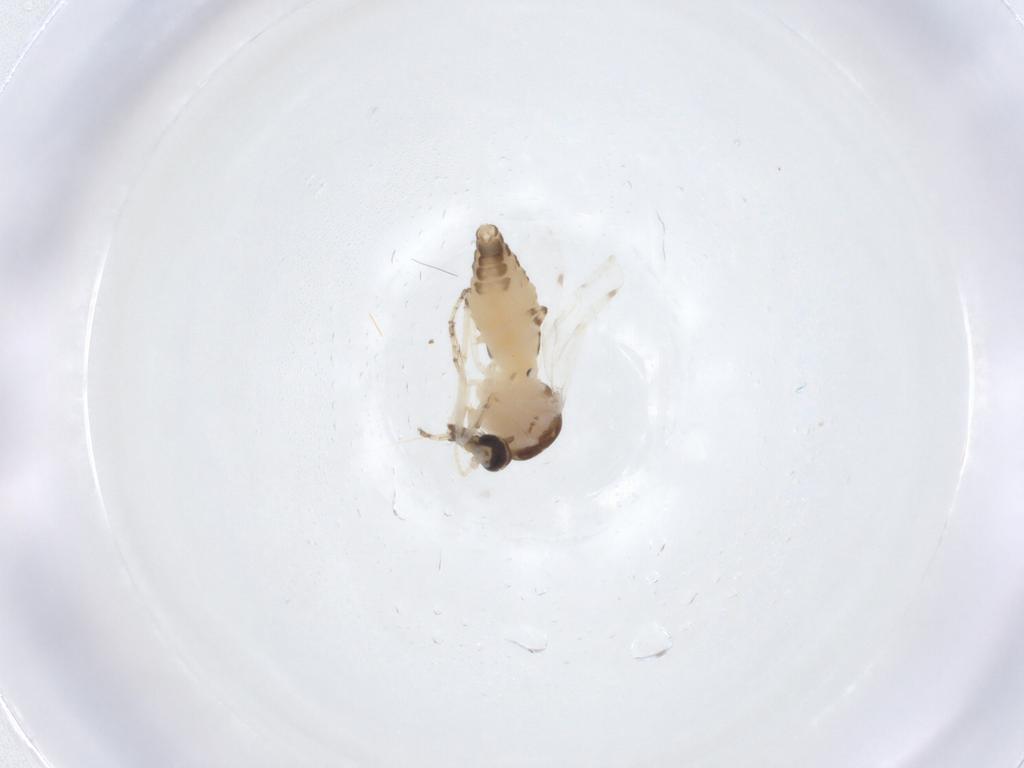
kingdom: Animalia
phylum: Arthropoda
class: Insecta
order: Diptera
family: Ceratopogonidae
